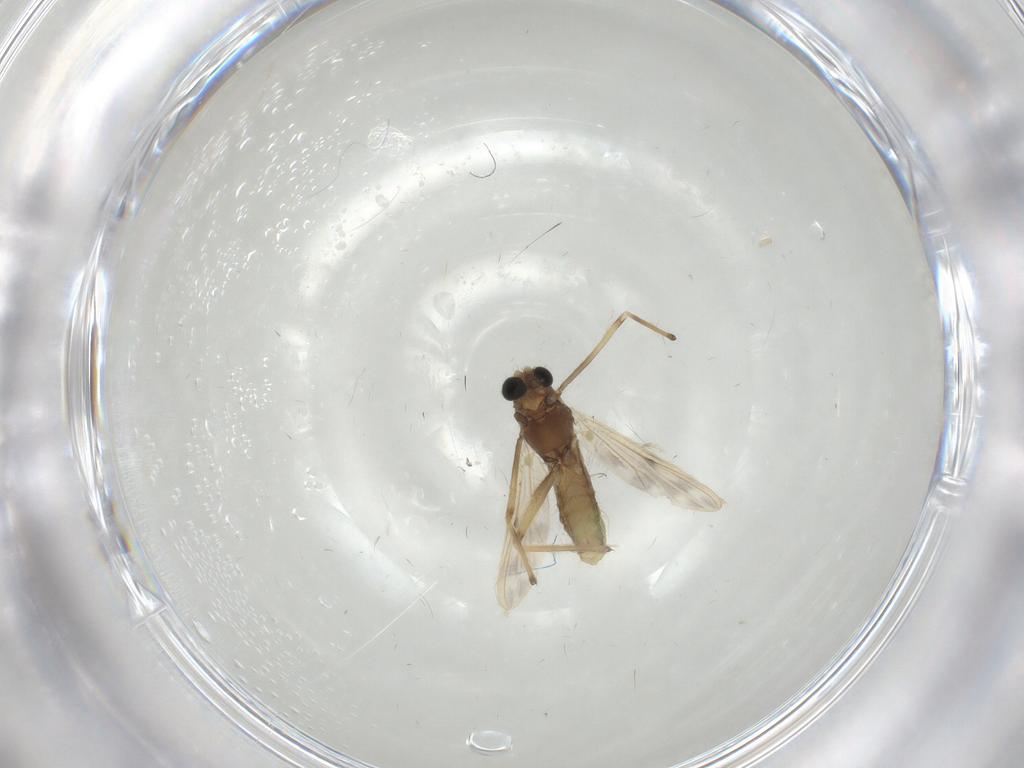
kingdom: Animalia
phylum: Arthropoda
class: Insecta
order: Diptera
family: Chironomidae
